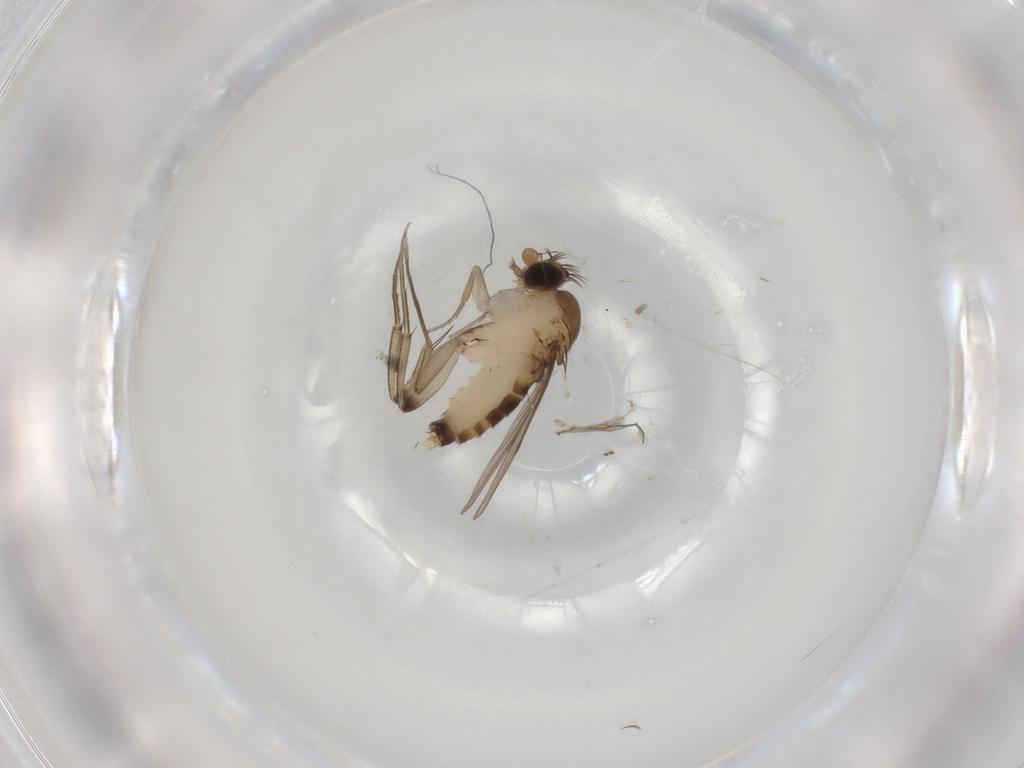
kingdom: Animalia
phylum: Arthropoda
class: Insecta
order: Diptera
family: Phoridae
